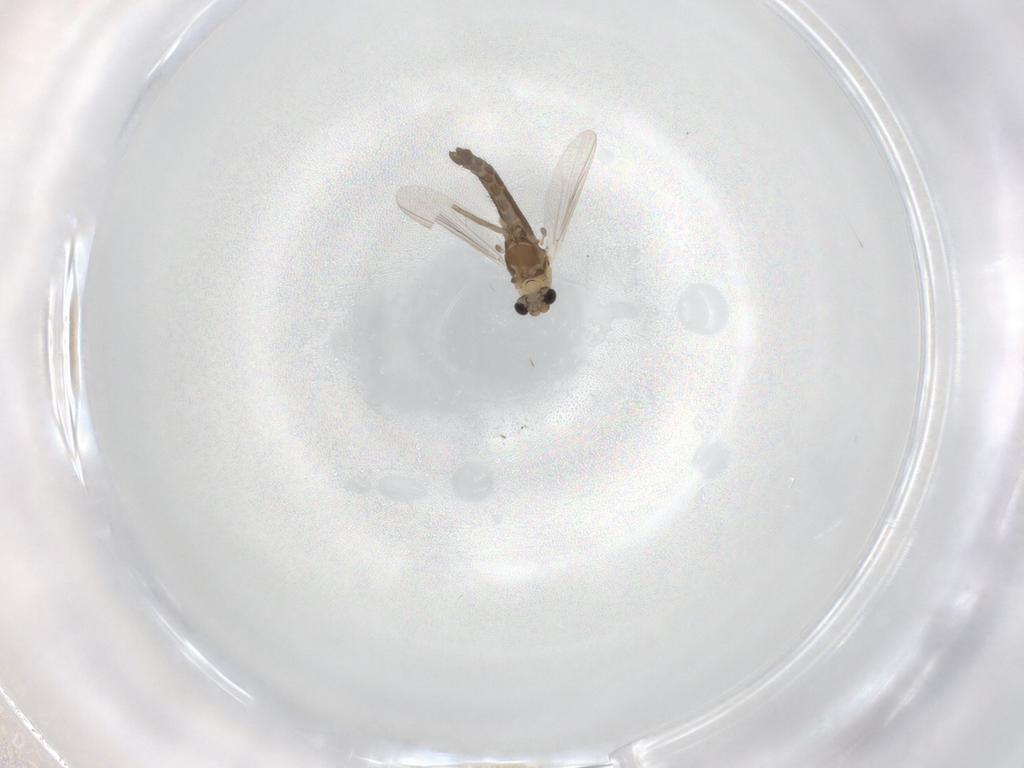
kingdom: Animalia
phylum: Arthropoda
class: Insecta
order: Diptera
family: Chironomidae
